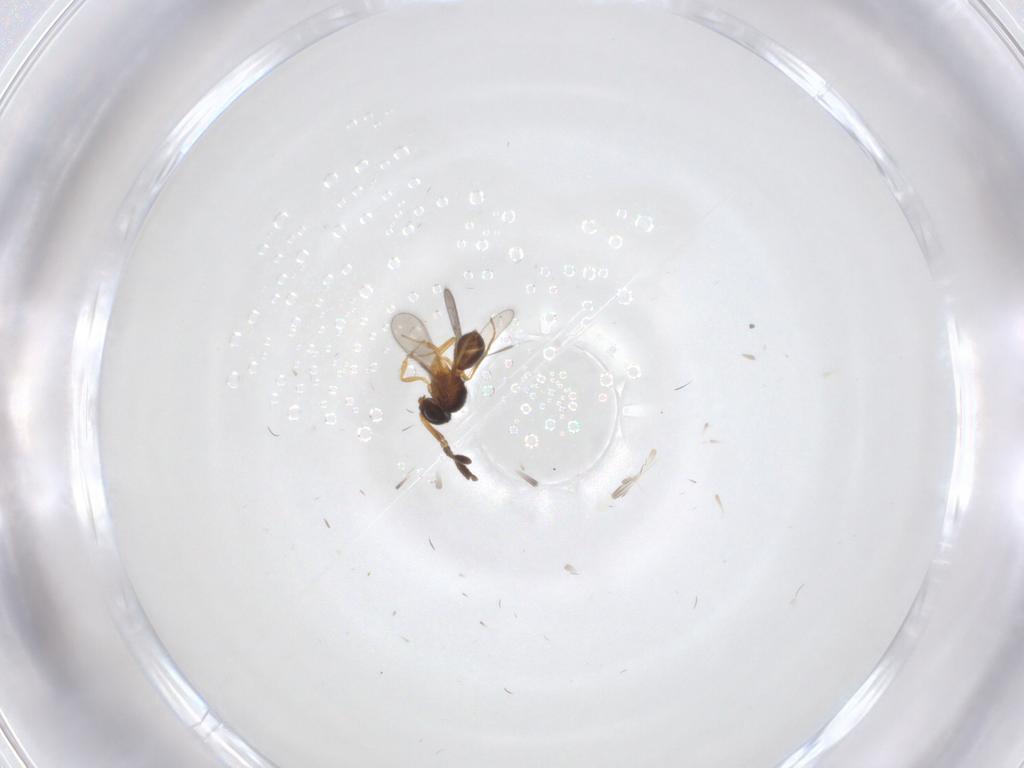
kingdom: Animalia
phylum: Arthropoda
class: Insecta
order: Hymenoptera
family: Scelionidae
